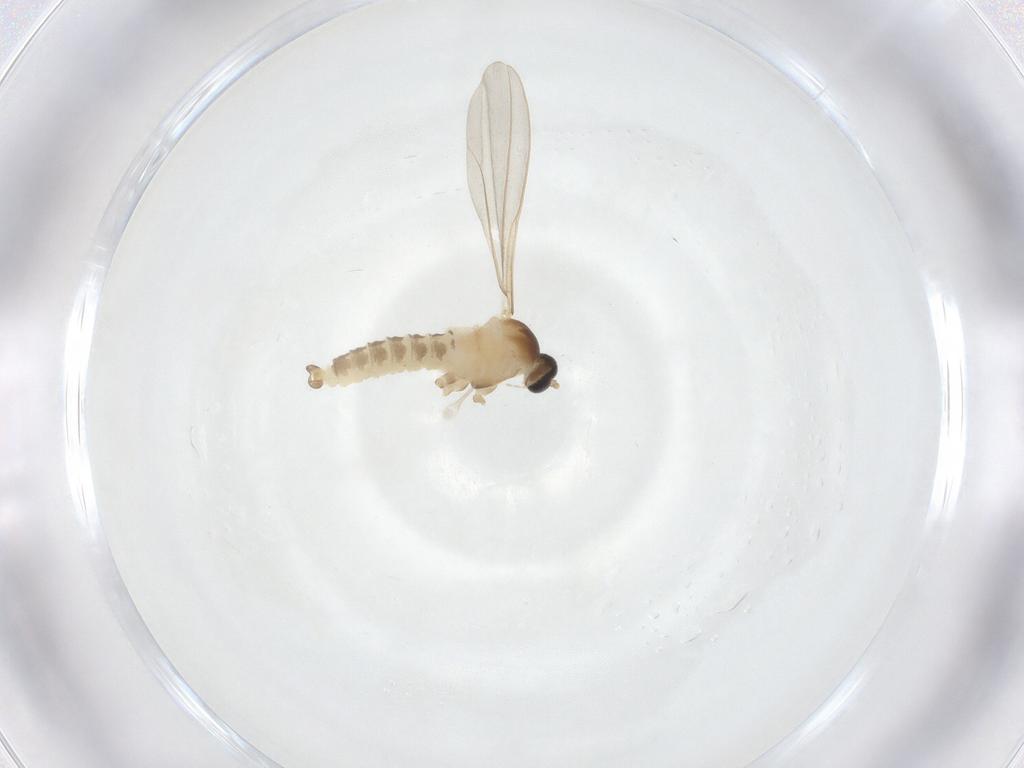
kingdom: Animalia
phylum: Arthropoda
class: Insecta
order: Diptera
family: Cecidomyiidae
